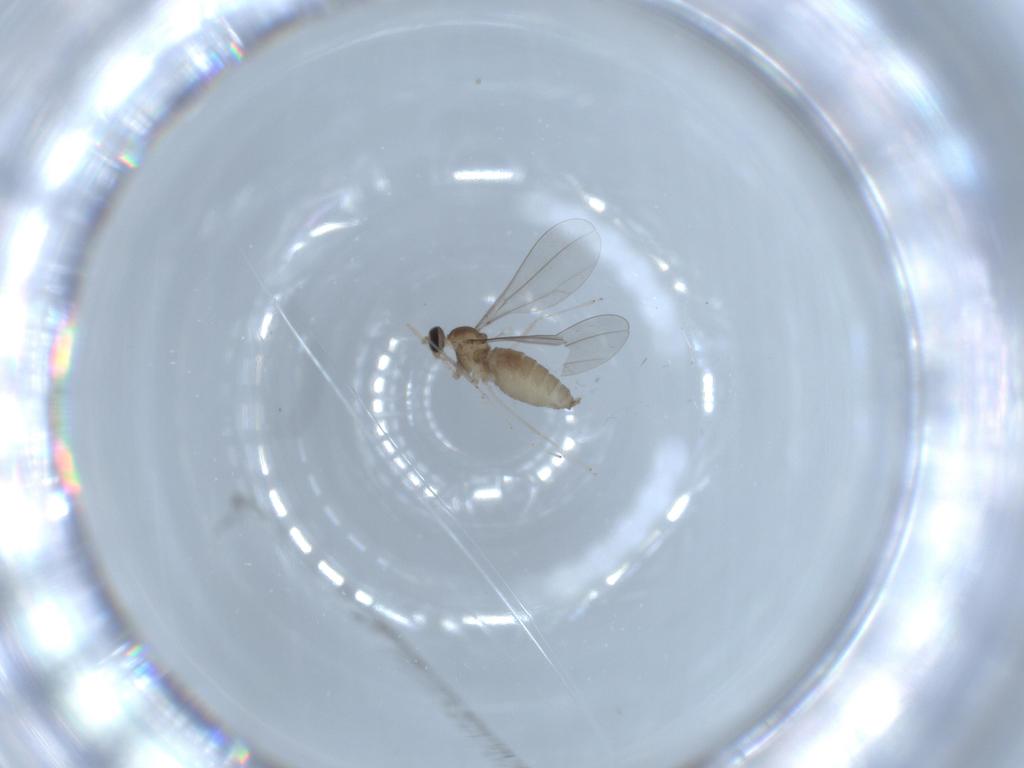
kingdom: Animalia
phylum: Arthropoda
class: Insecta
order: Diptera
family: Cecidomyiidae
